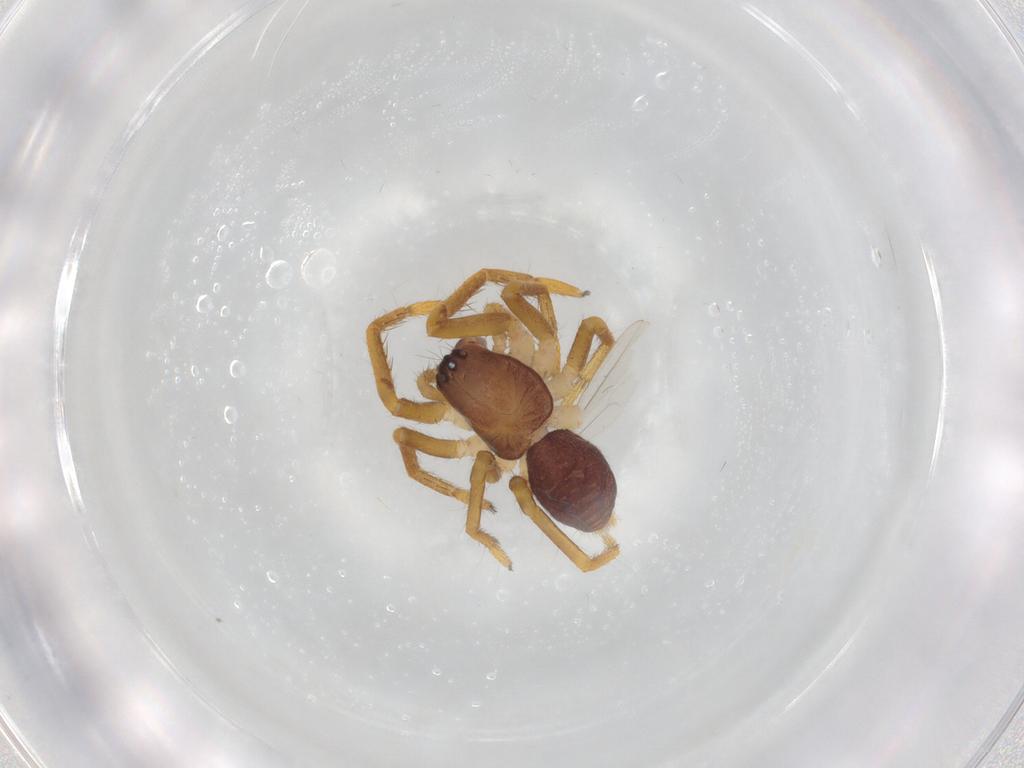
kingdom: Animalia
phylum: Arthropoda
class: Arachnida
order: Araneae
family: Corinnidae
